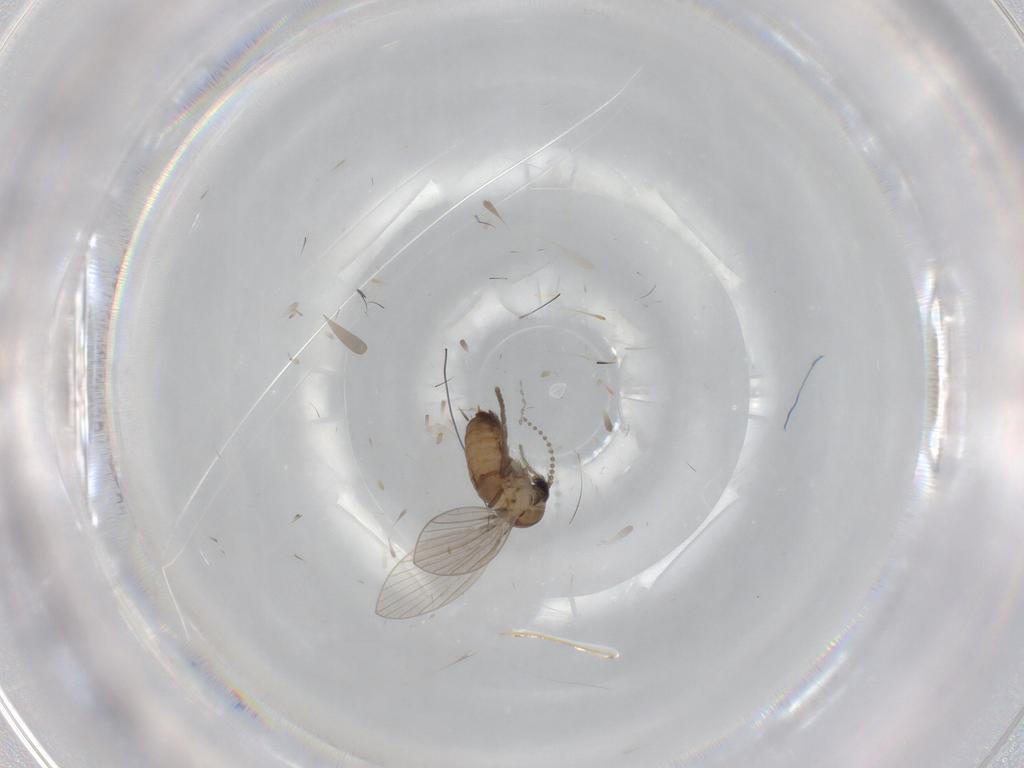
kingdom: Animalia
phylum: Arthropoda
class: Insecta
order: Diptera
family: Psychodidae
